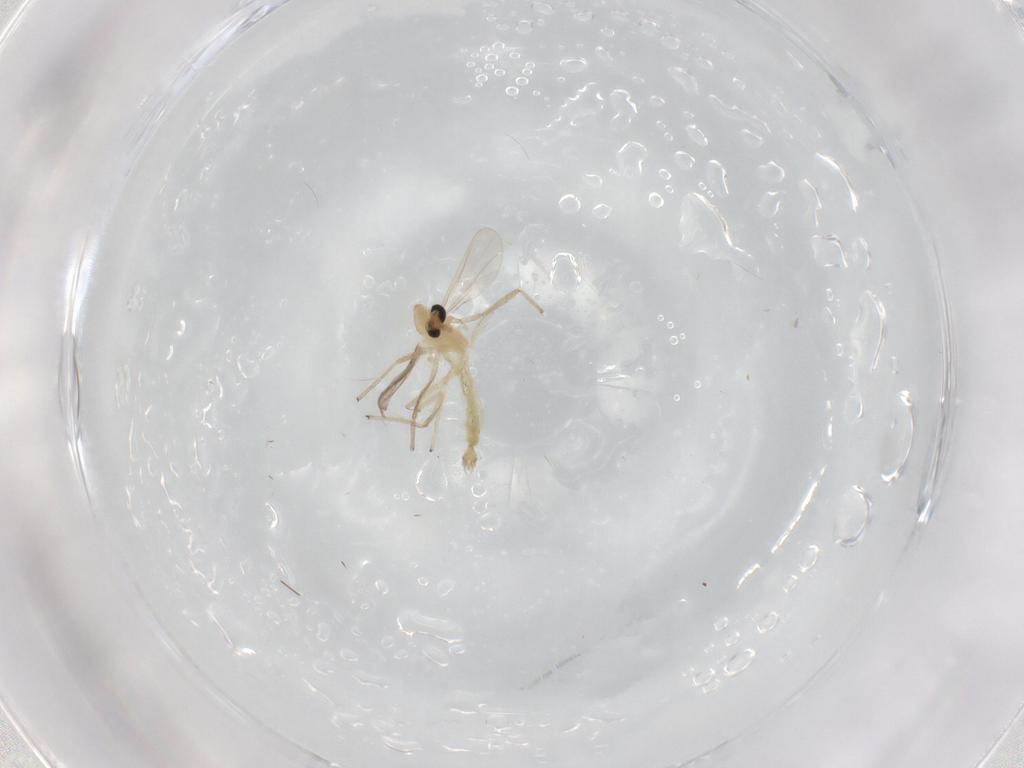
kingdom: Animalia
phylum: Arthropoda
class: Insecta
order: Diptera
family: Chironomidae
